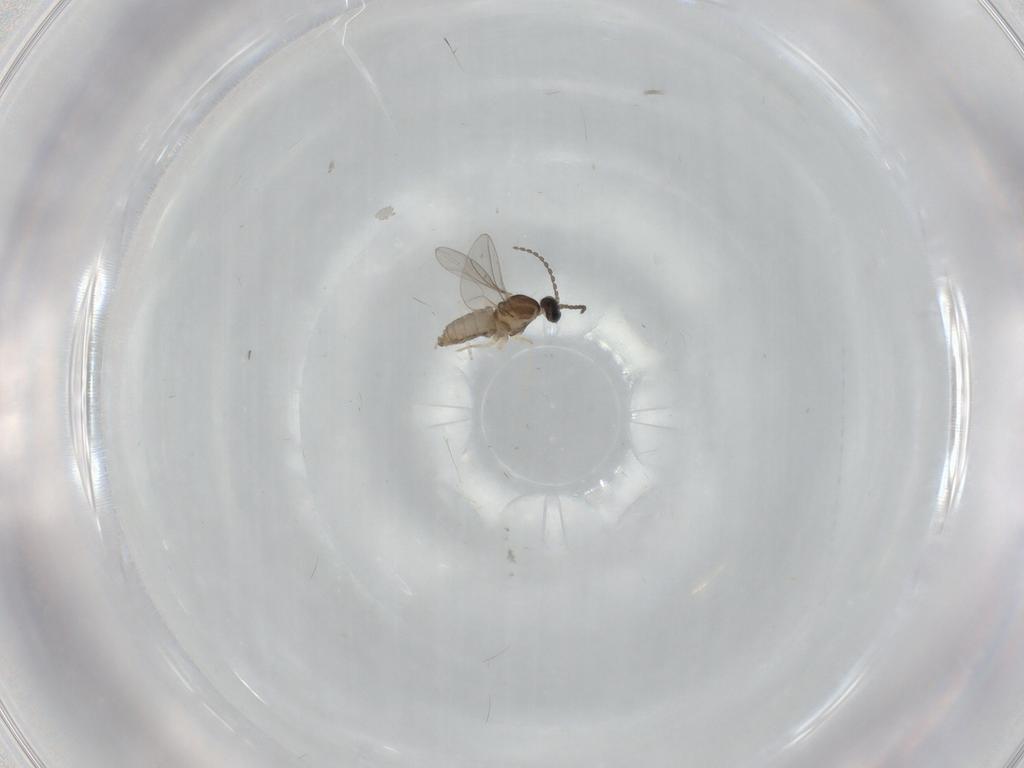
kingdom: Animalia
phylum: Arthropoda
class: Insecta
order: Diptera
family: Cecidomyiidae
